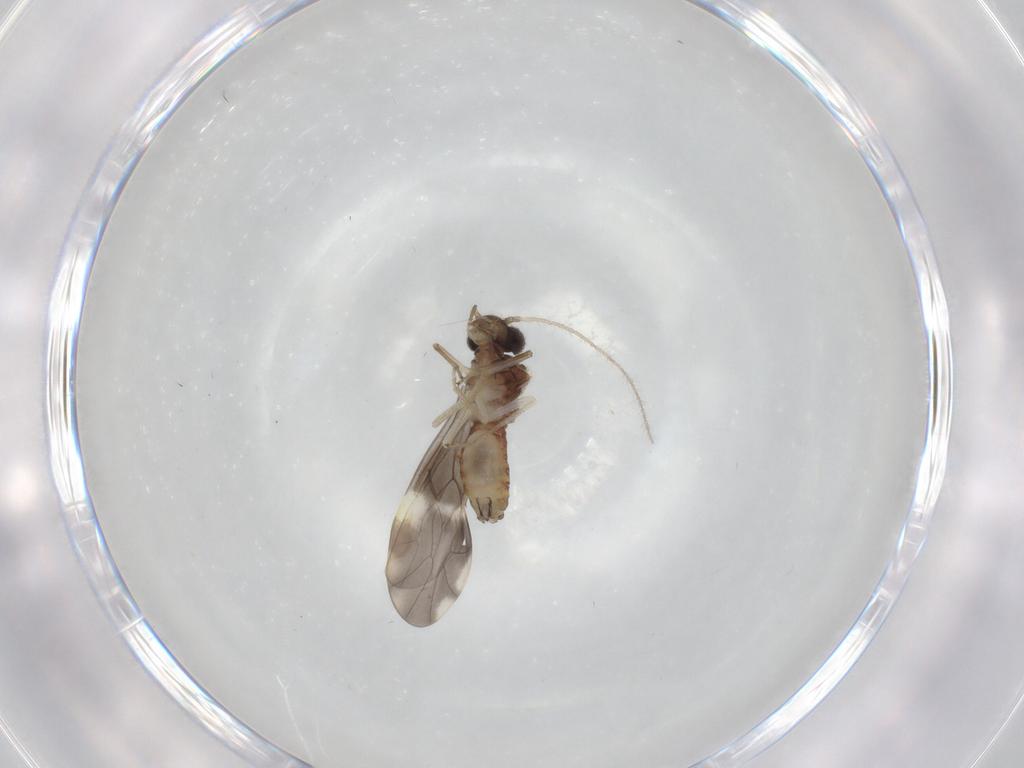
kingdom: Animalia
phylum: Arthropoda
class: Insecta
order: Psocodea
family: Peripsocidae
